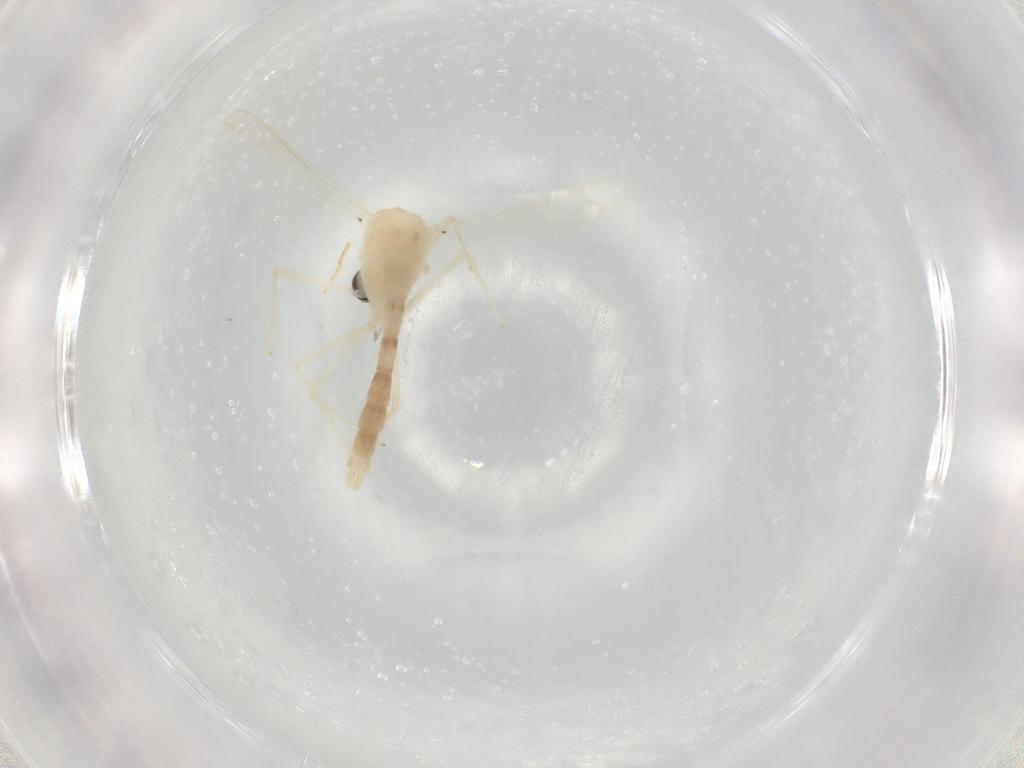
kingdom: Animalia
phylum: Arthropoda
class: Insecta
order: Diptera
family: Chironomidae
